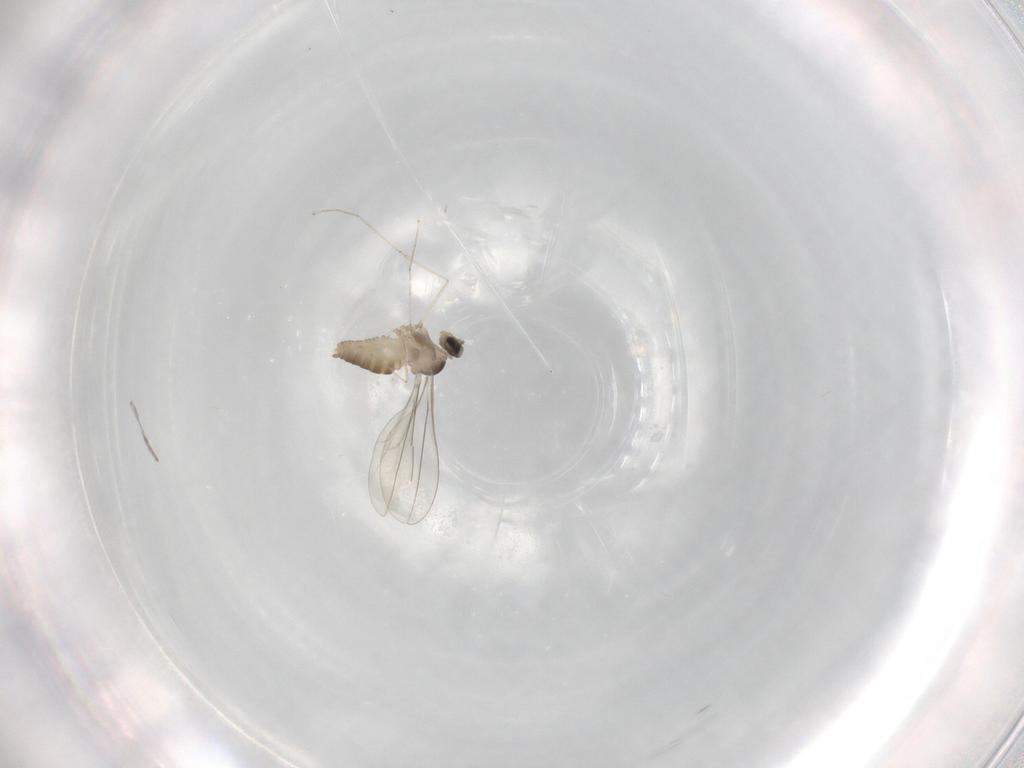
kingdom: Animalia
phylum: Arthropoda
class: Insecta
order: Diptera
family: Cecidomyiidae
